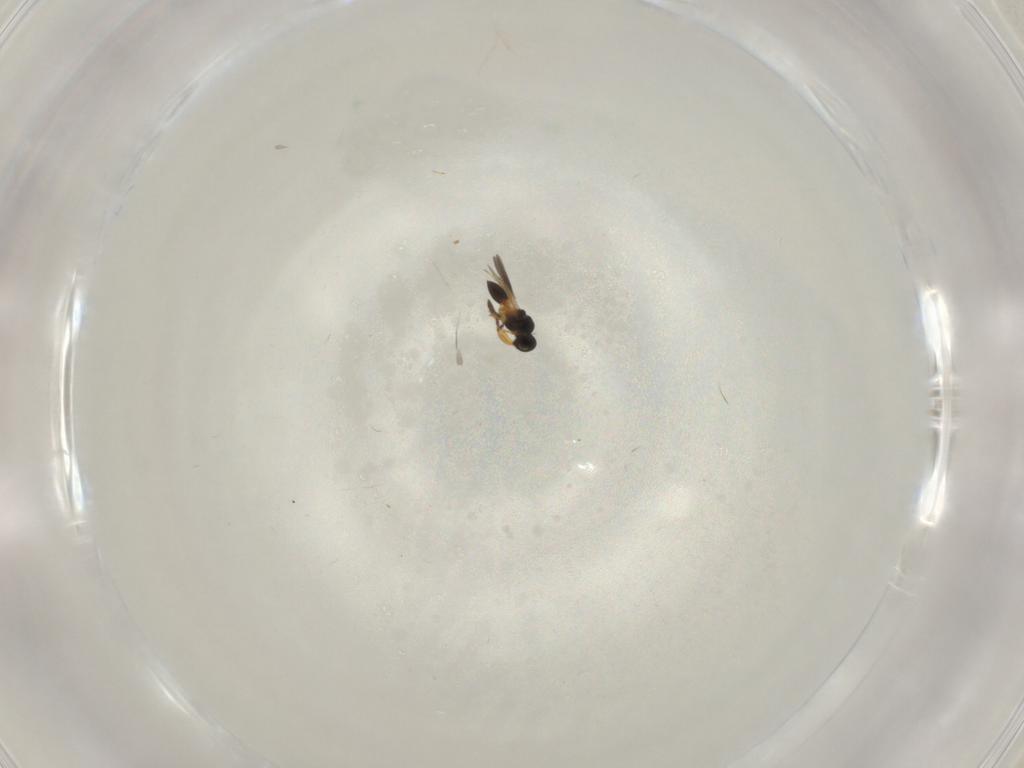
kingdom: Animalia
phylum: Arthropoda
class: Insecta
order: Hymenoptera
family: Platygastridae
